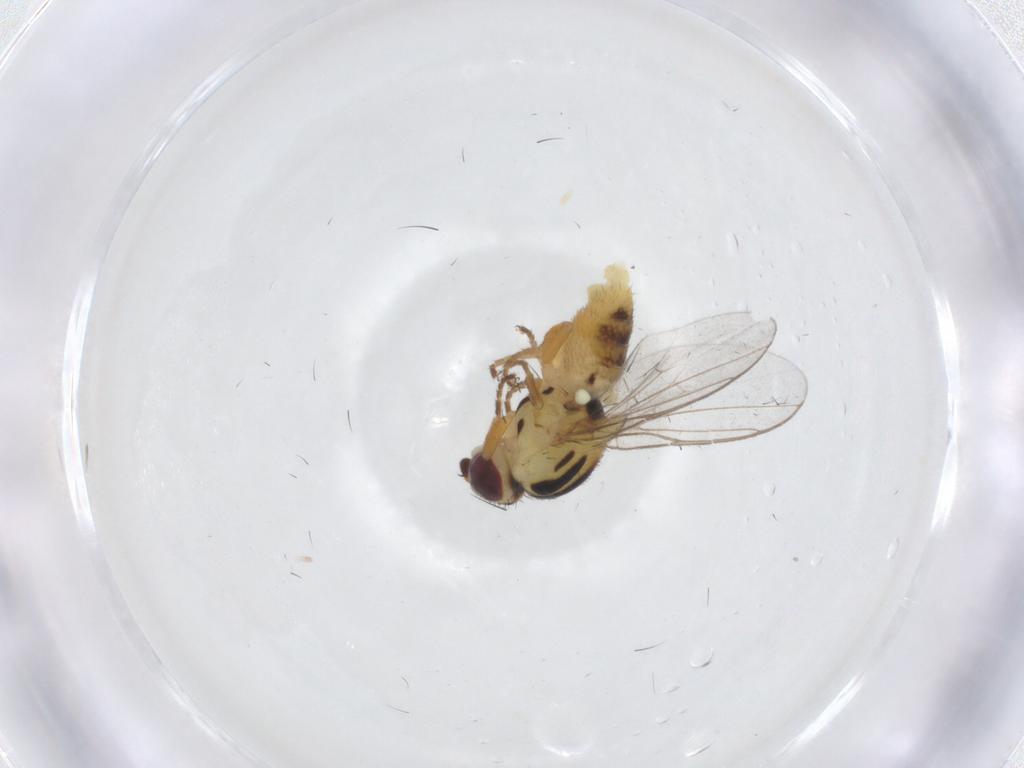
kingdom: Animalia
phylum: Arthropoda
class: Insecta
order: Diptera
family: Chloropidae
